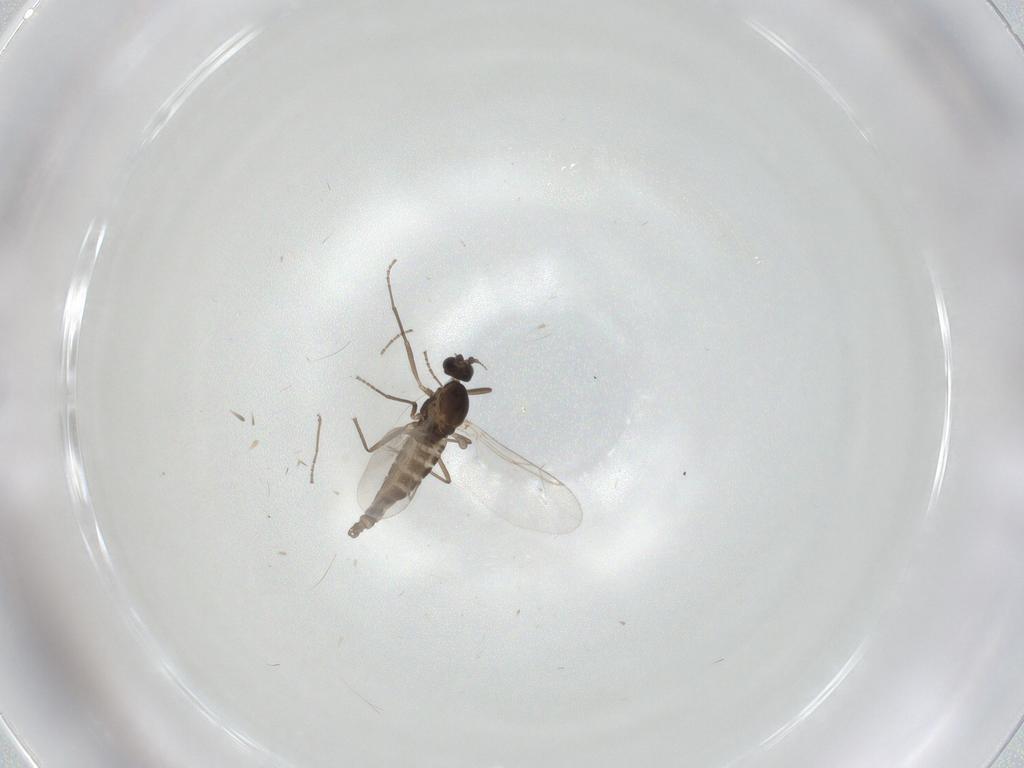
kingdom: Animalia
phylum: Arthropoda
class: Insecta
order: Diptera
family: Cecidomyiidae
